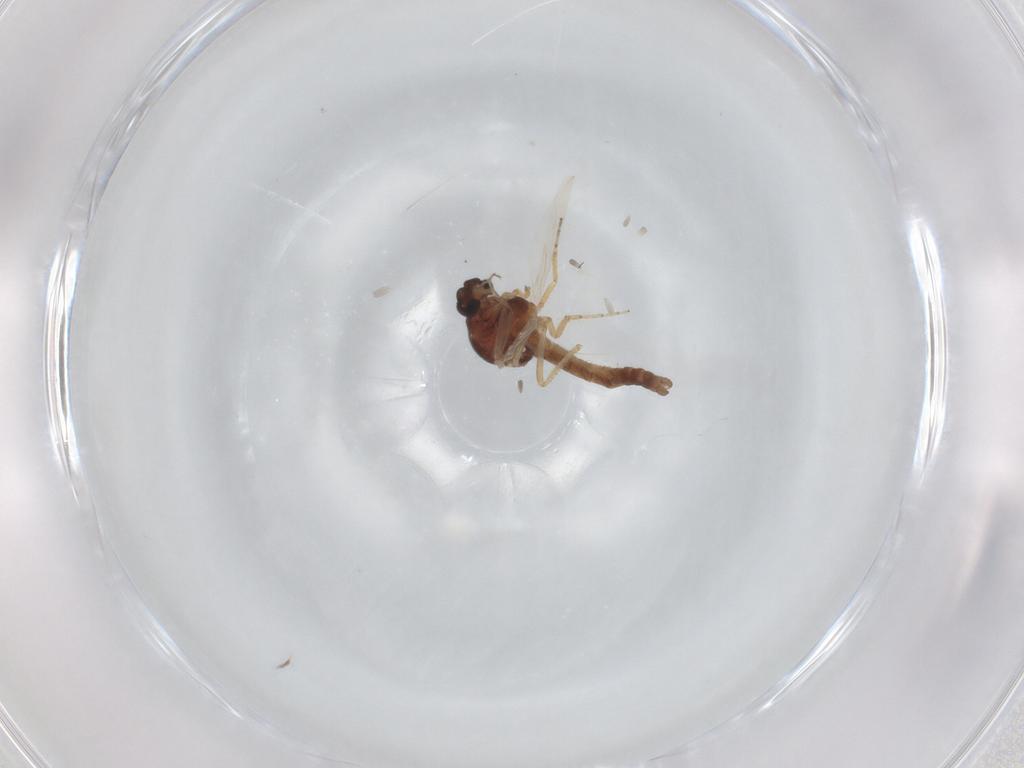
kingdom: Animalia
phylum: Arthropoda
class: Insecta
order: Diptera
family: Ceratopogonidae
